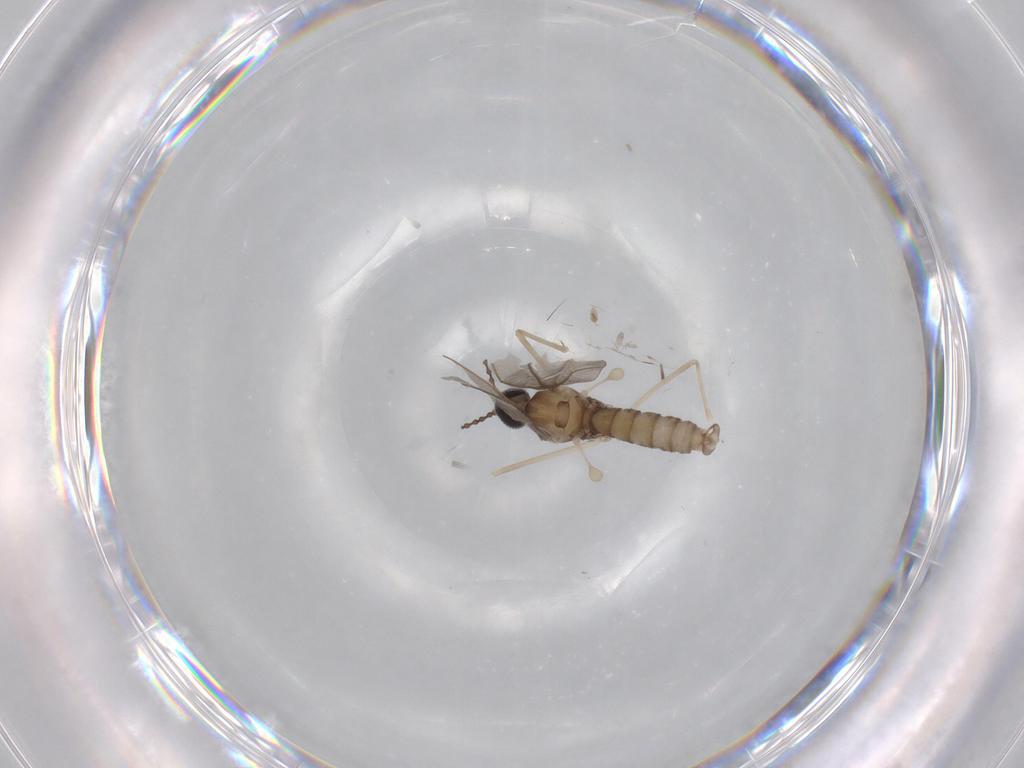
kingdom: Animalia
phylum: Arthropoda
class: Insecta
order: Diptera
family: Cecidomyiidae
